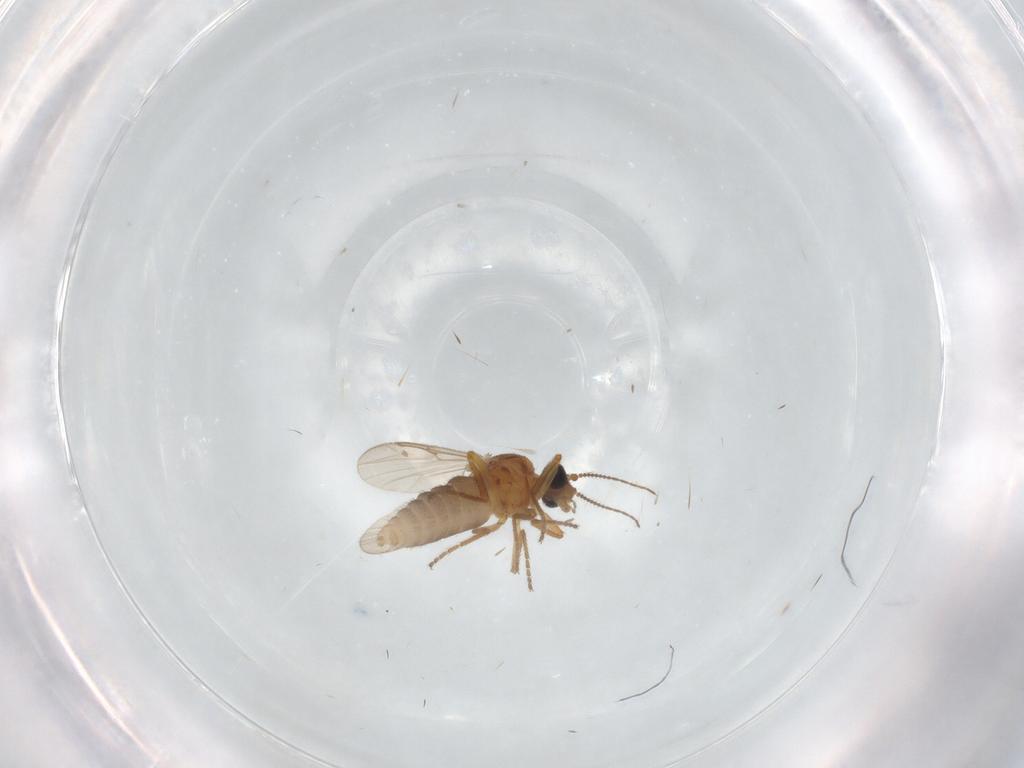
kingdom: Animalia
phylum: Arthropoda
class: Insecta
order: Diptera
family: Ceratopogonidae
